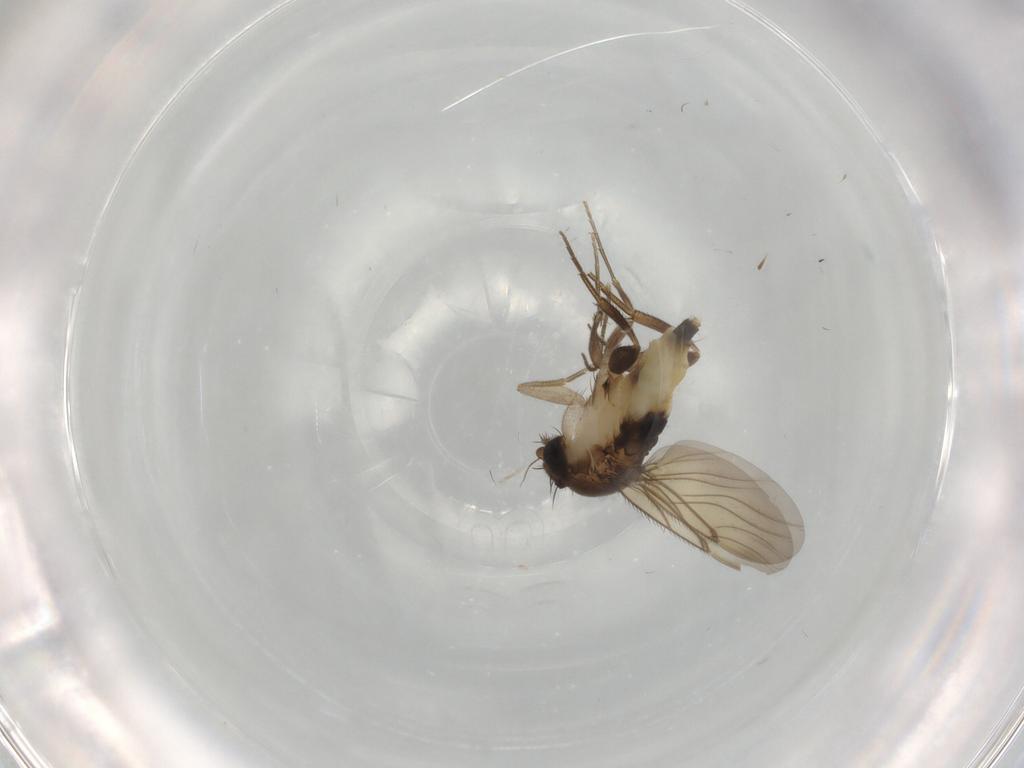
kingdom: Animalia
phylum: Arthropoda
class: Insecta
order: Diptera
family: Phoridae
